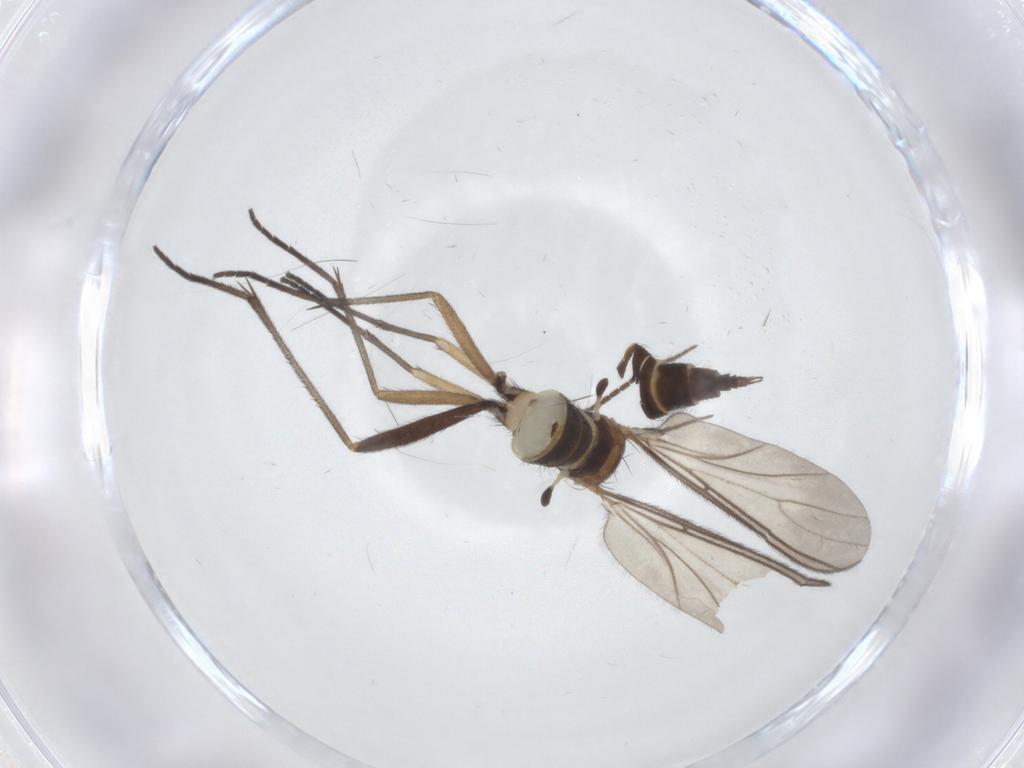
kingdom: Animalia
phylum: Arthropoda
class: Insecta
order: Diptera
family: Sciaridae
